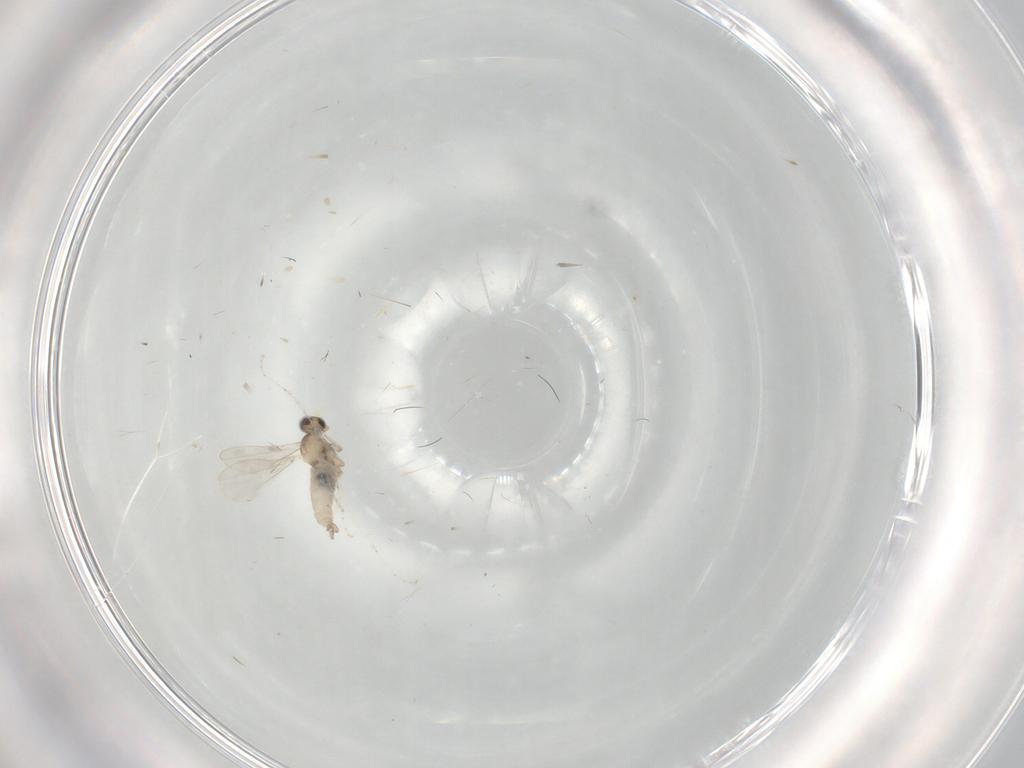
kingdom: Animalia
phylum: Arthropoda
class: Insecta
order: Diptera
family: Cecidomyiidae
